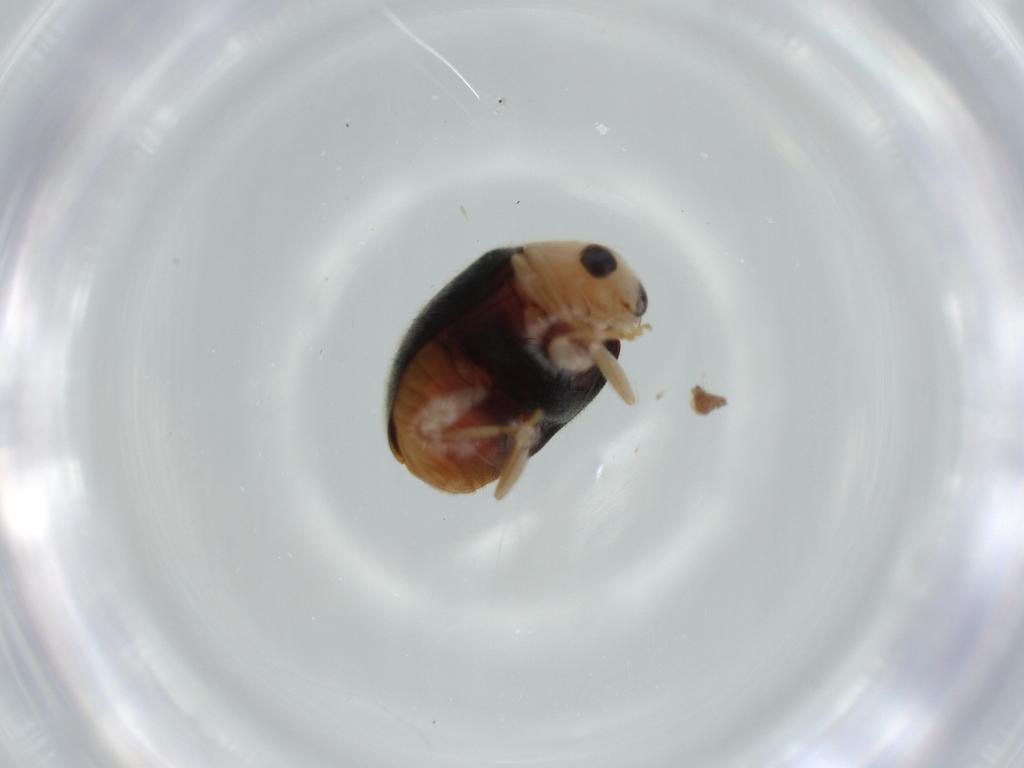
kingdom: Animalia
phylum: Arthropoda
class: Insecta
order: Coleoptera
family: Coccinellidae
